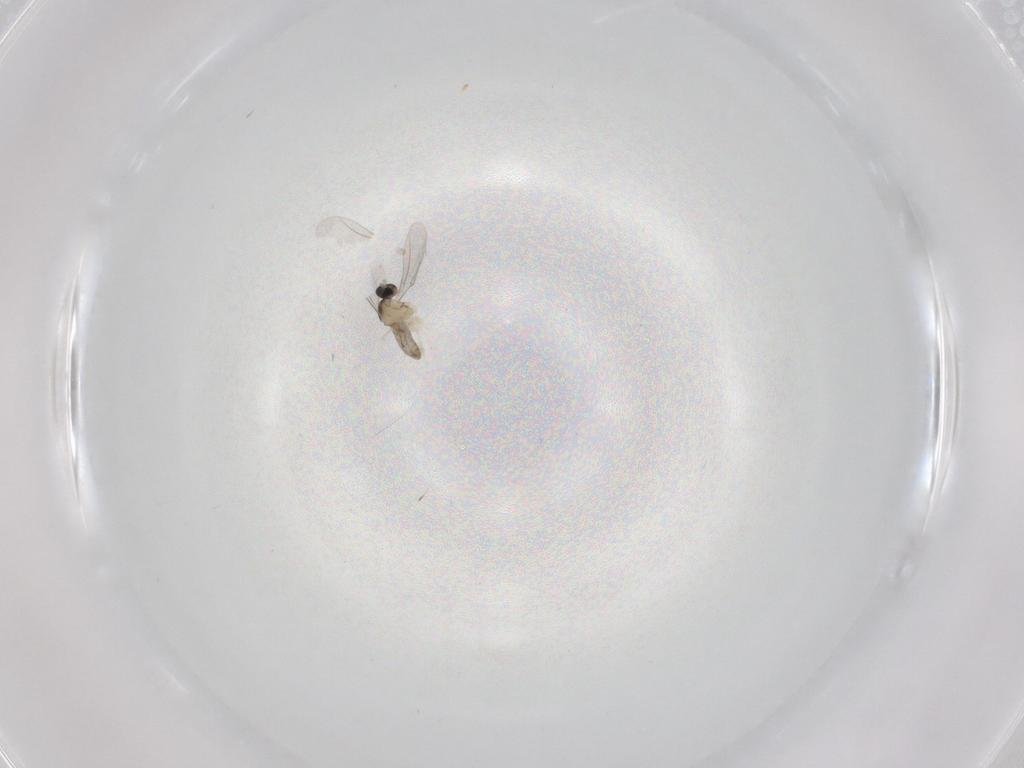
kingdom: Animalia
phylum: Arthropoda
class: Insecta
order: Diptera
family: Cecidomyiidae
